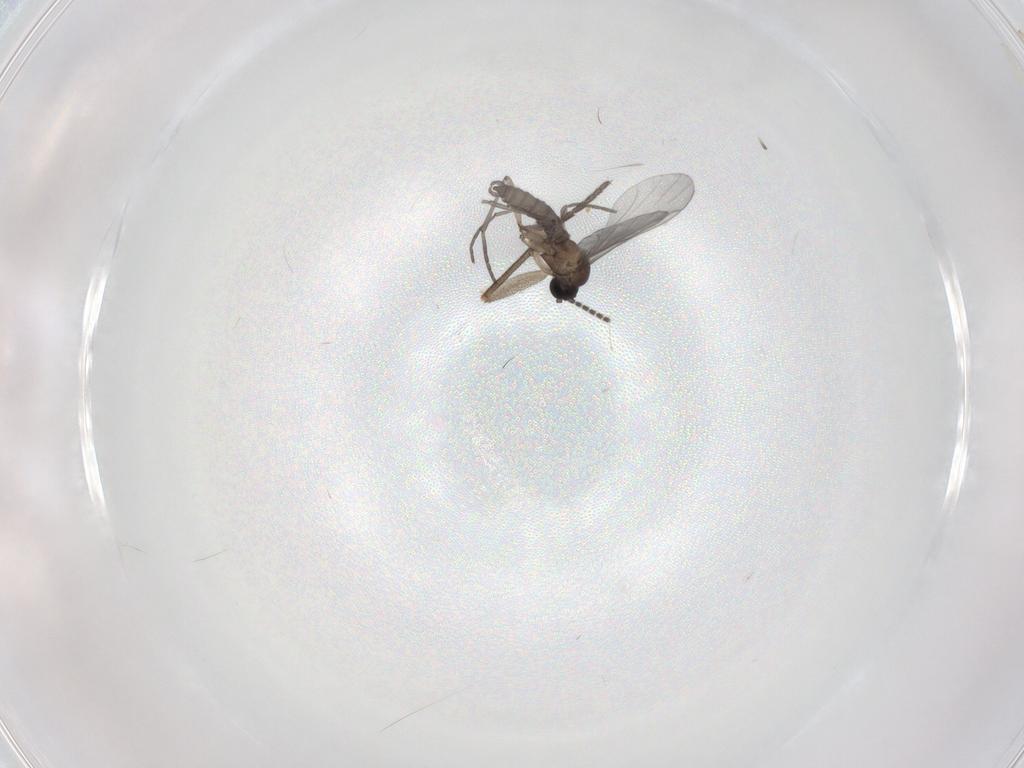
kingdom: Animalia
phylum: Arthropoda
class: Insecta
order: Diptera
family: Sciaridae
